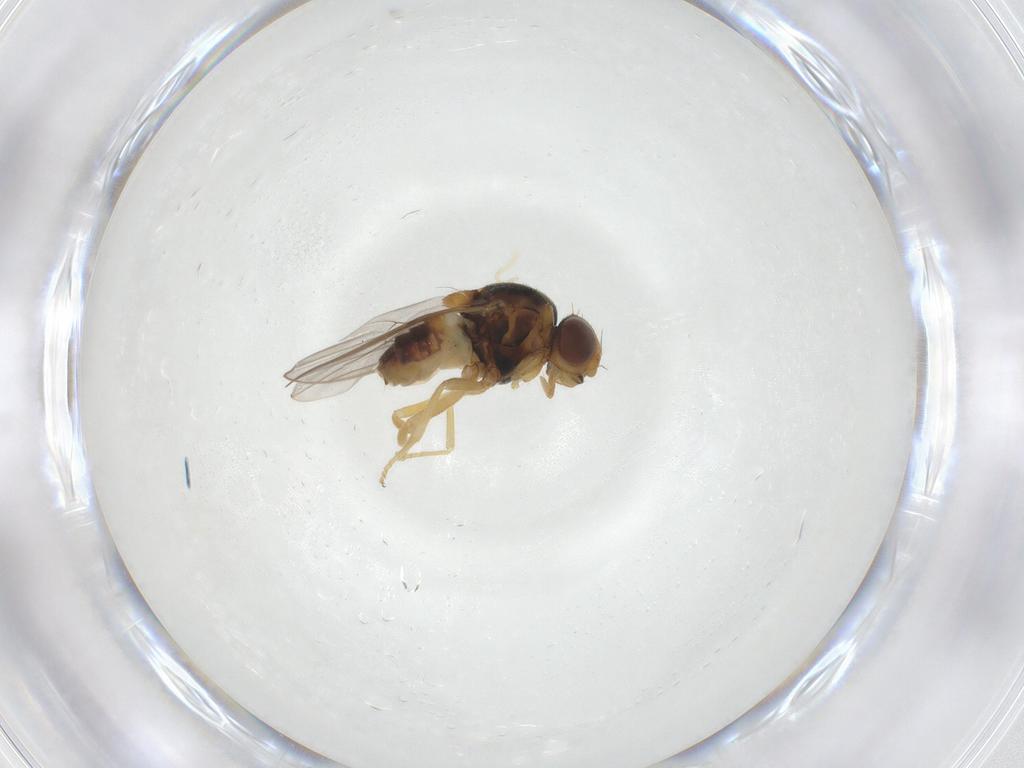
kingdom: Animalia
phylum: Arthropoda
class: Insecta
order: Diptera
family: Chloropidae
